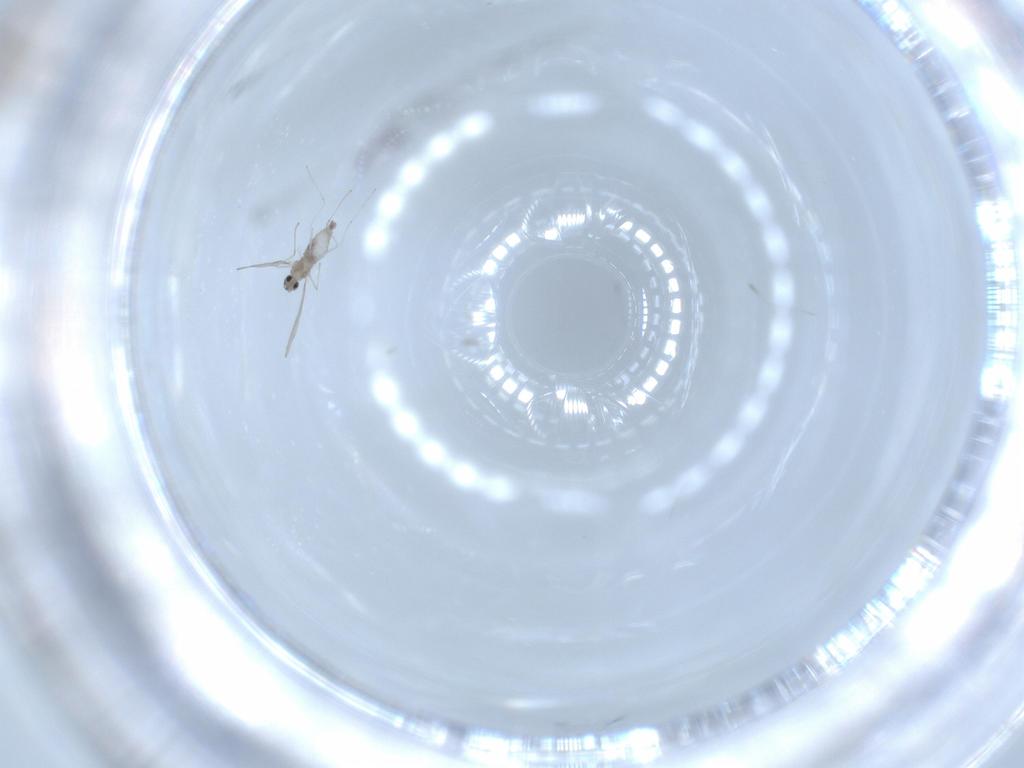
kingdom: Animalia
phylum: Arthropoda
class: Insecta
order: Diptera
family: Cecidomyiidae
